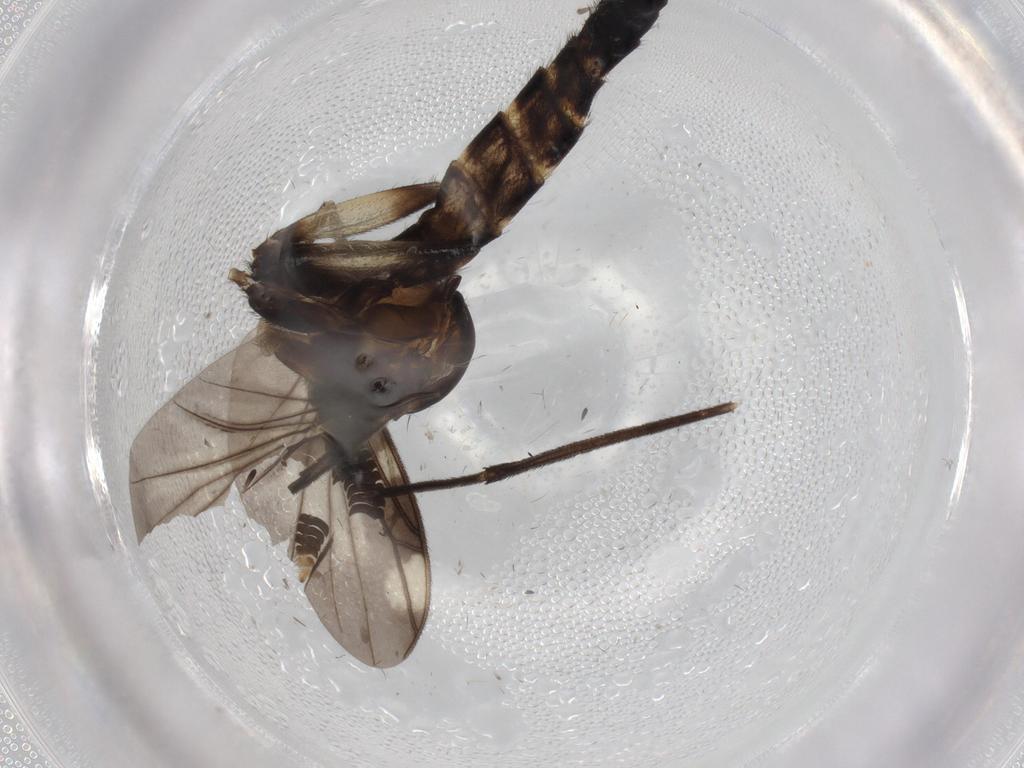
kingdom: Animalia
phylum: Arthropoda
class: Insecta
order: Diptera
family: Keroplatidae
